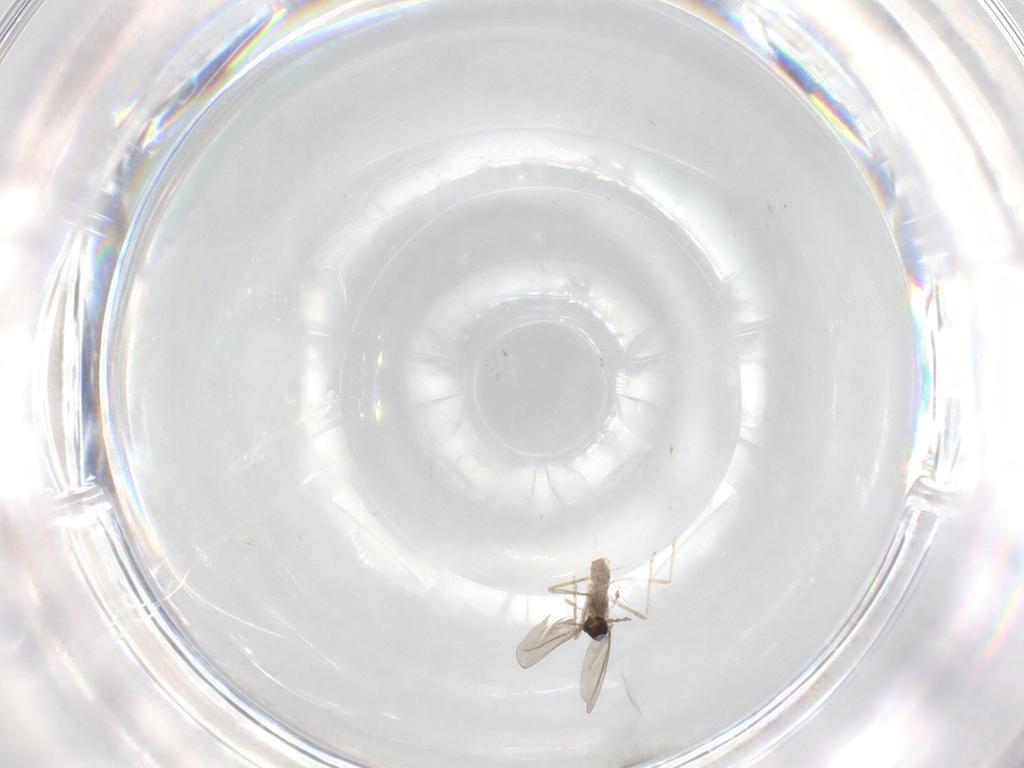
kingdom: Animalia
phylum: Arthropoda
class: Insecta
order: Diptera
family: Cecidomyiidae
